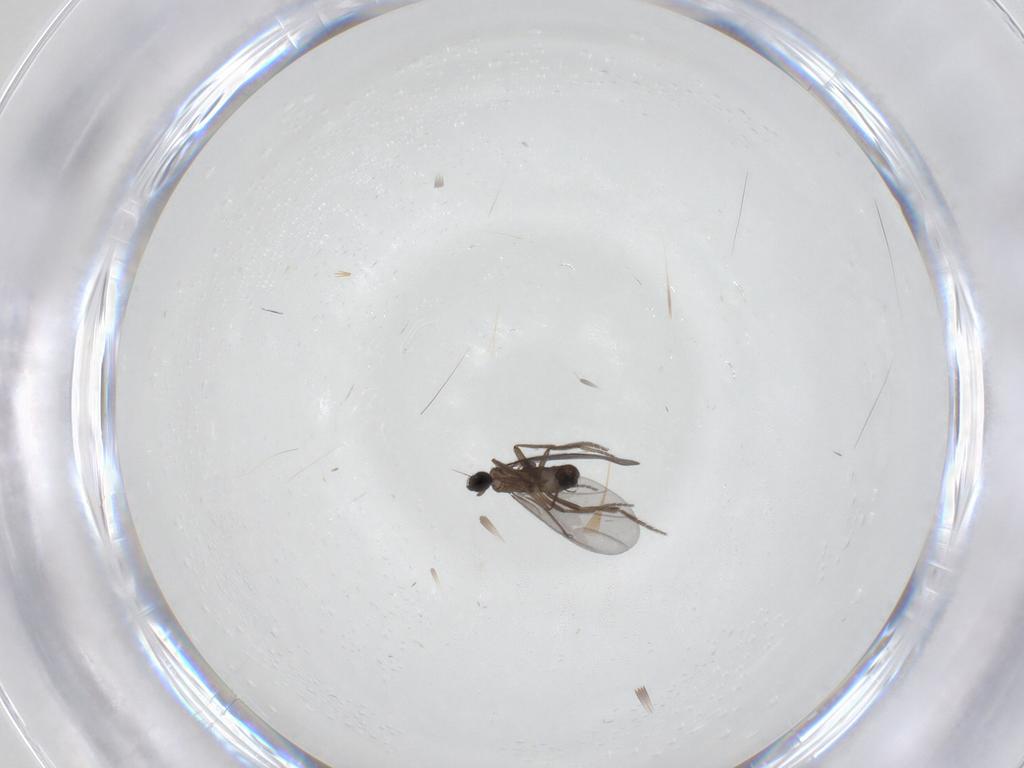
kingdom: Animalia
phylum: Arthropoda
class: Insecta
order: Diptera
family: Phoridae
